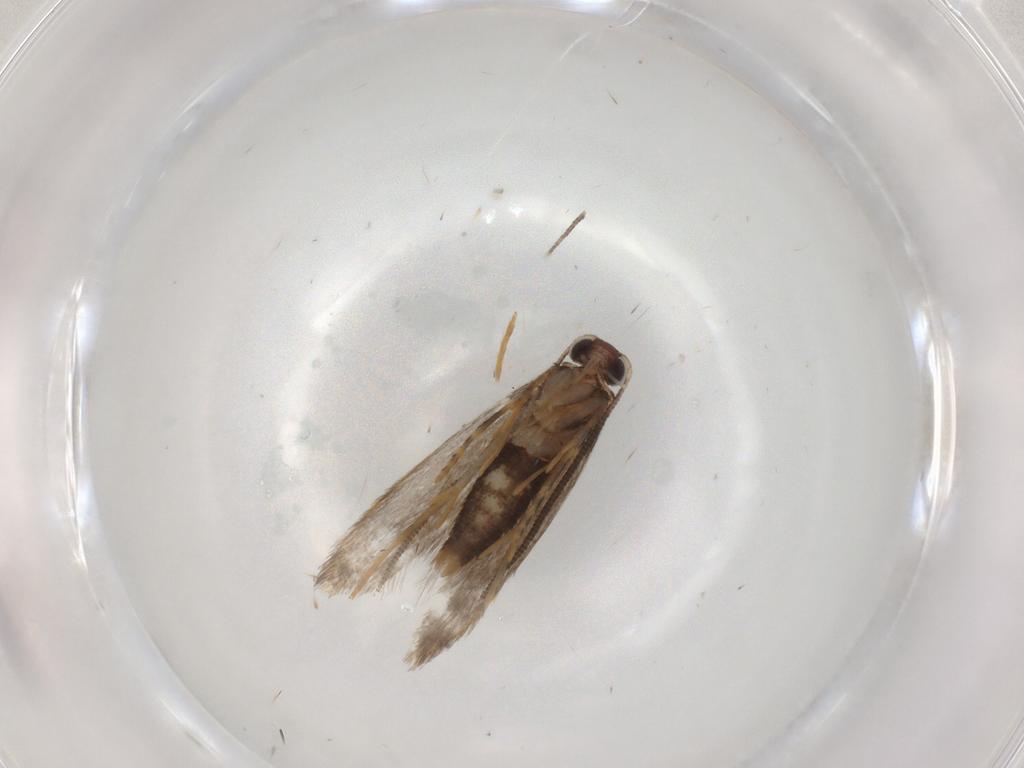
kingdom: Animalia
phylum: Arthropoda
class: Insecta
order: Lepidoptera
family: Tineidae
